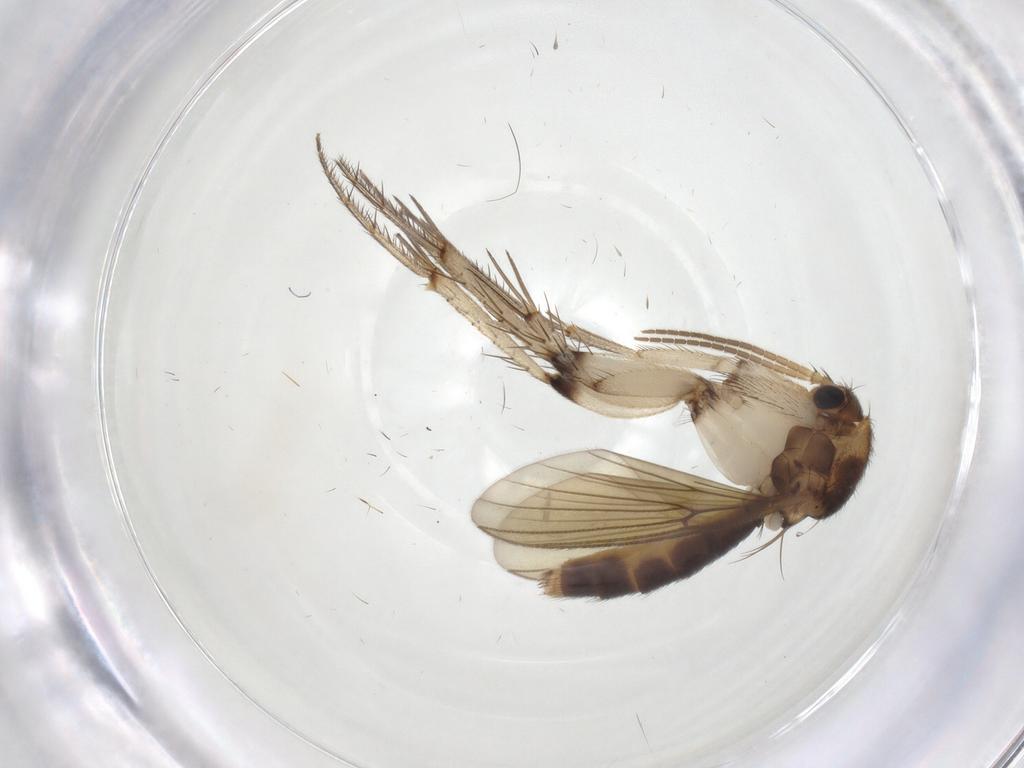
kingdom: Animalia
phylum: Arthropoda
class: Insecta
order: Diptera
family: Mycetophilidae
